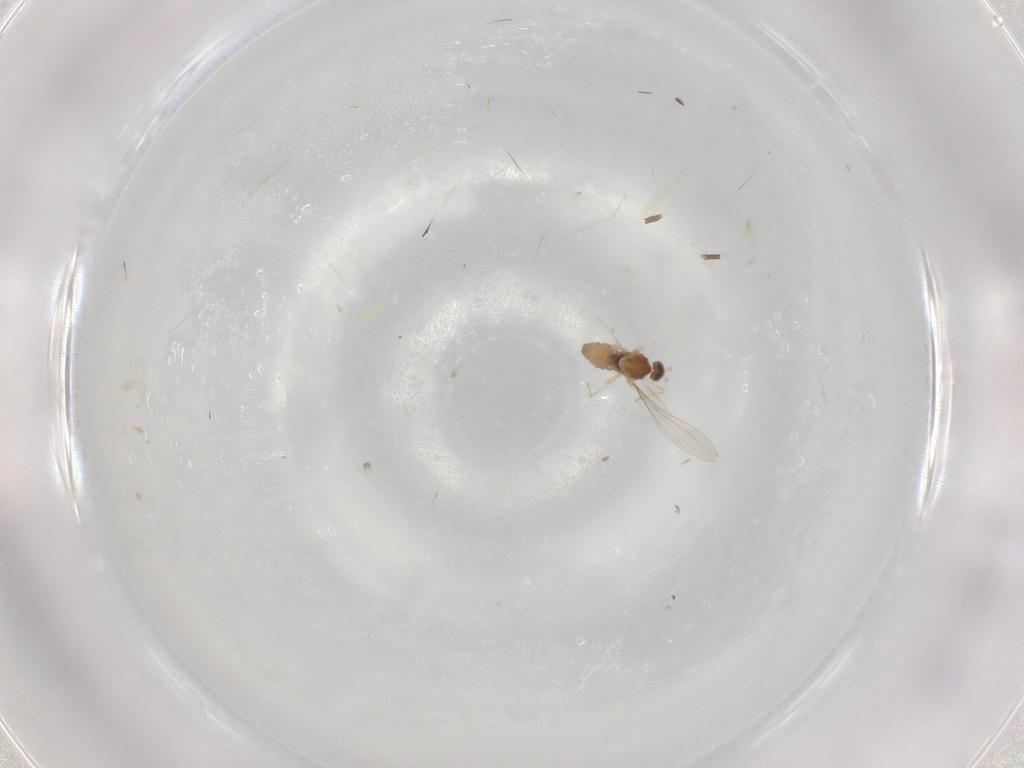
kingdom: Animalia
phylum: Arthropoda
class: Insecta
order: Diptera
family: Cecidomyiidae
